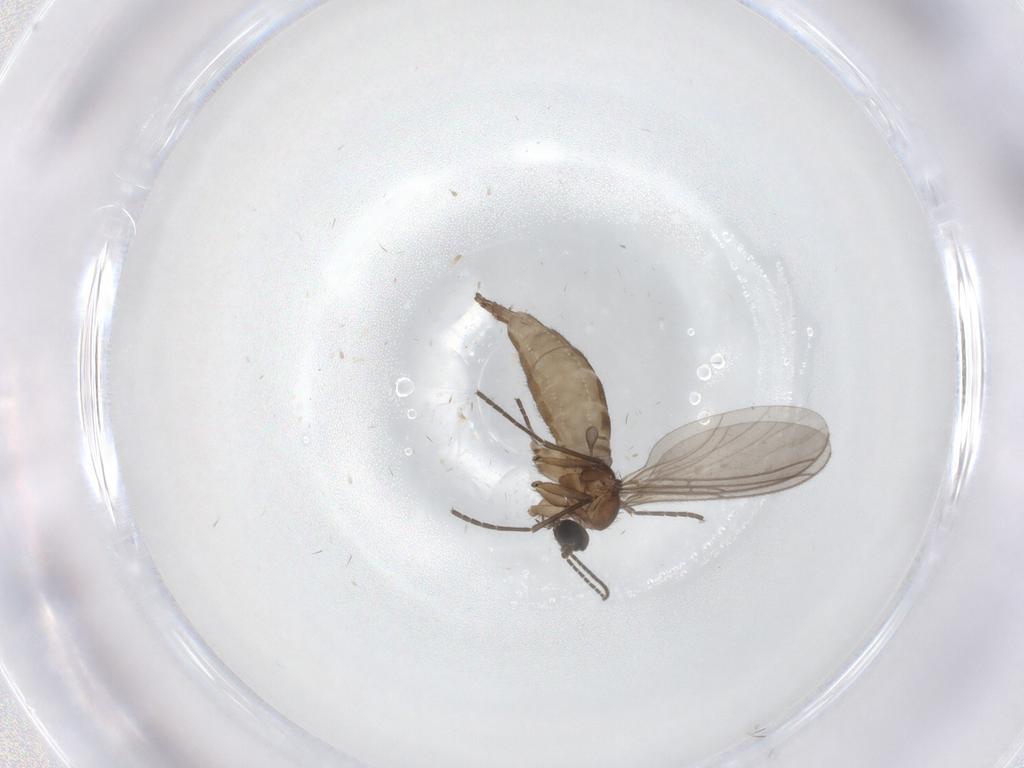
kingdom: Animalia
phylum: Arthropoda
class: Insecta
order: Diptera
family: Sciaridae
